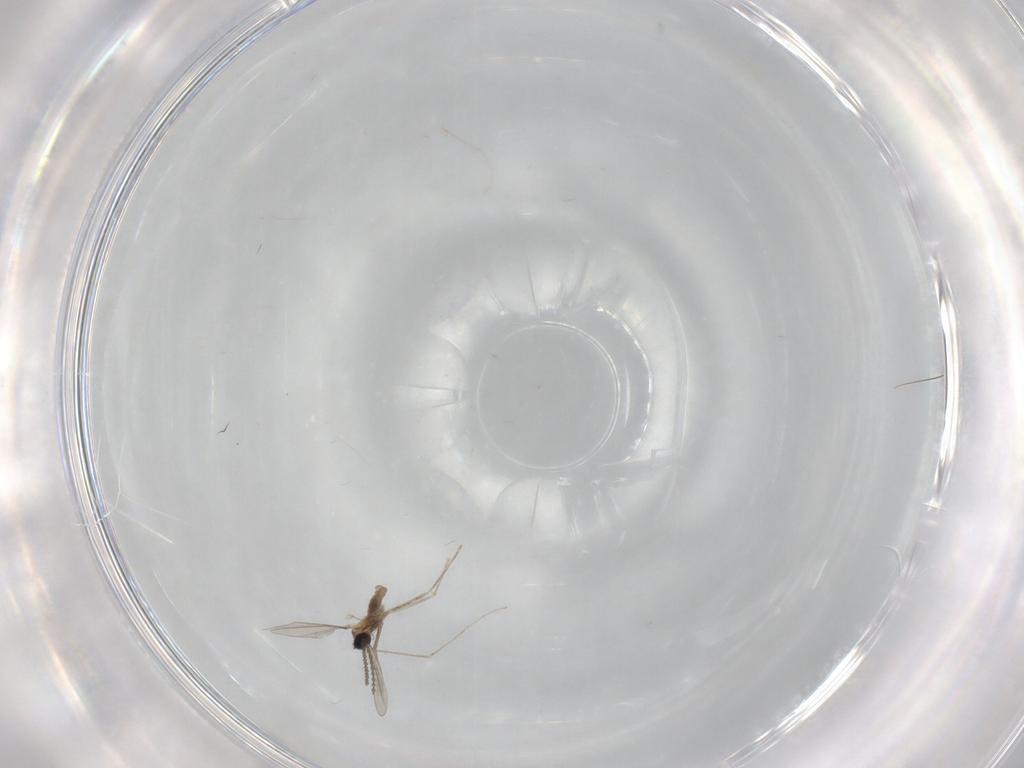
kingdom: Animalia
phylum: Arthropoda
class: Insecta
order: Diptera
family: Cecidomyiidae
